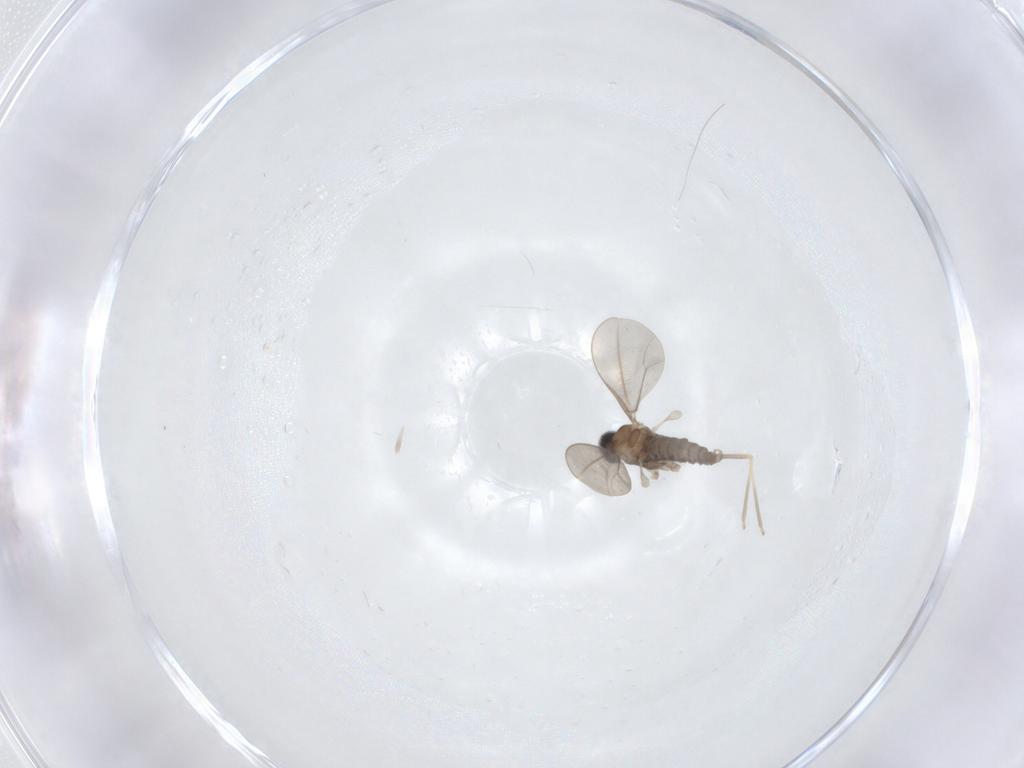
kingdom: Animalia
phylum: Arthropoda
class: Insecta
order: Diptera
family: Cecidomyiidae
